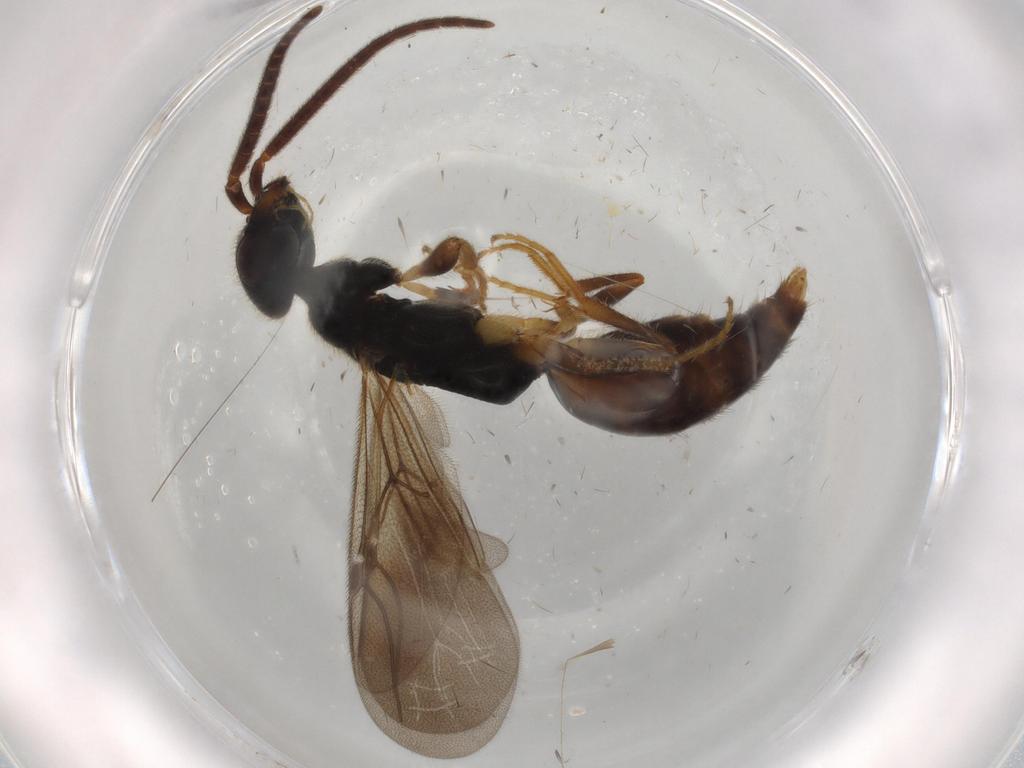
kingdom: Animalia
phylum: Arthropoda
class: Insecta
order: Hymenoptera
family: Bethylidae
